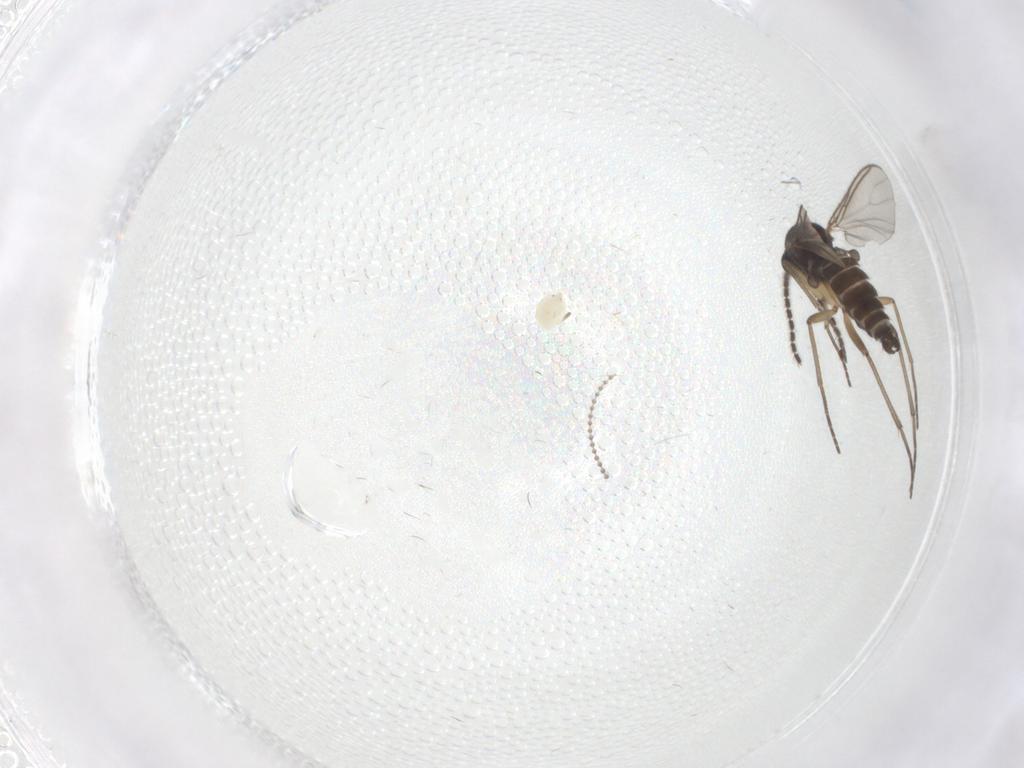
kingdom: Animalia
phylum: Arthropoda
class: Insecta
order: Diptera
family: Sciaridae
